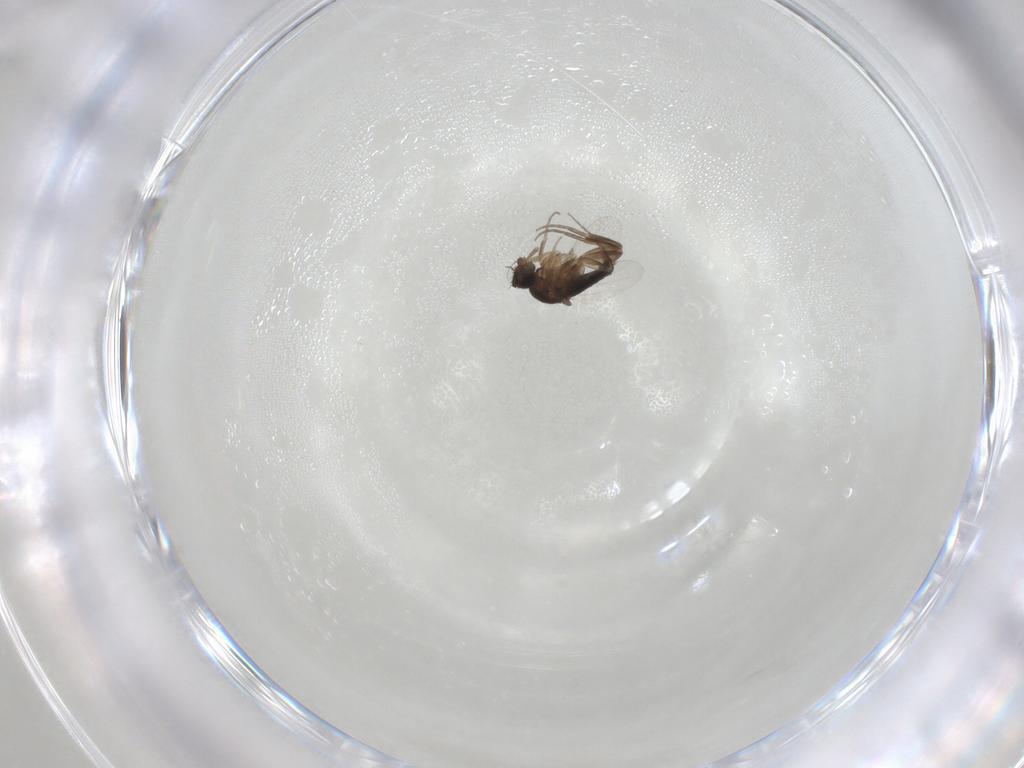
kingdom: Animalia
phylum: Arthropoda
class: Insecta
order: Diptera
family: Phoridae
